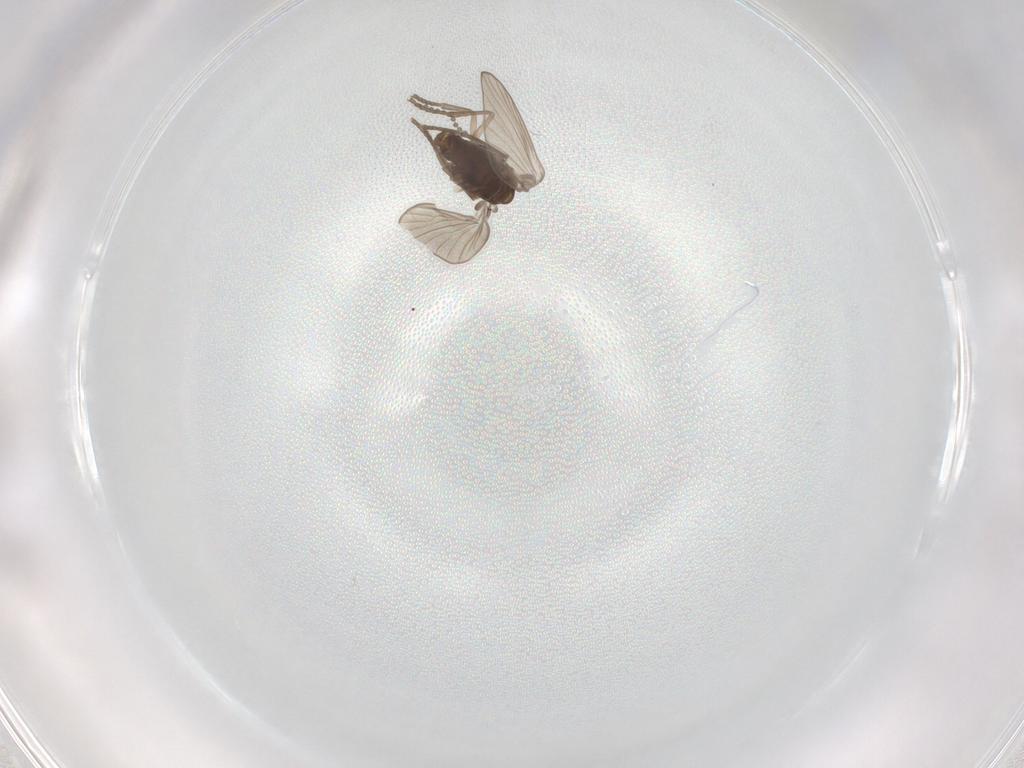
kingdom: Animalia
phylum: Arthropoda
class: Insecta
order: Diptera
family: Psychodidae
